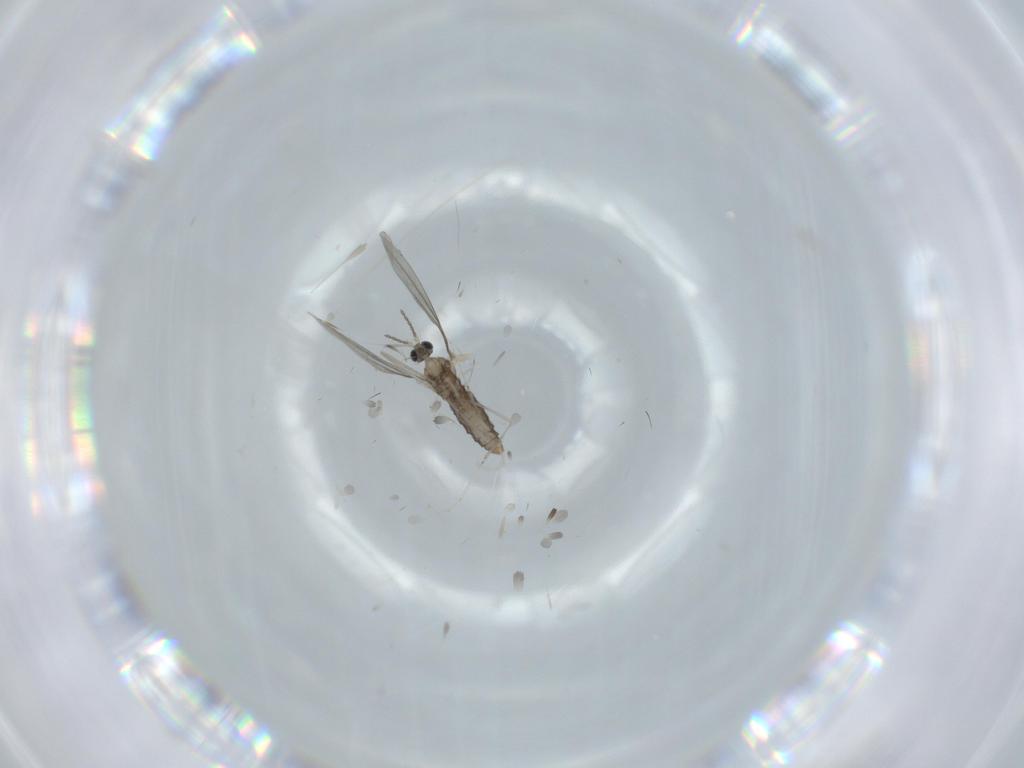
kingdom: Animalia
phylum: Arthropoda
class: Insecta
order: Diptera
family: Cecidomyiidae
